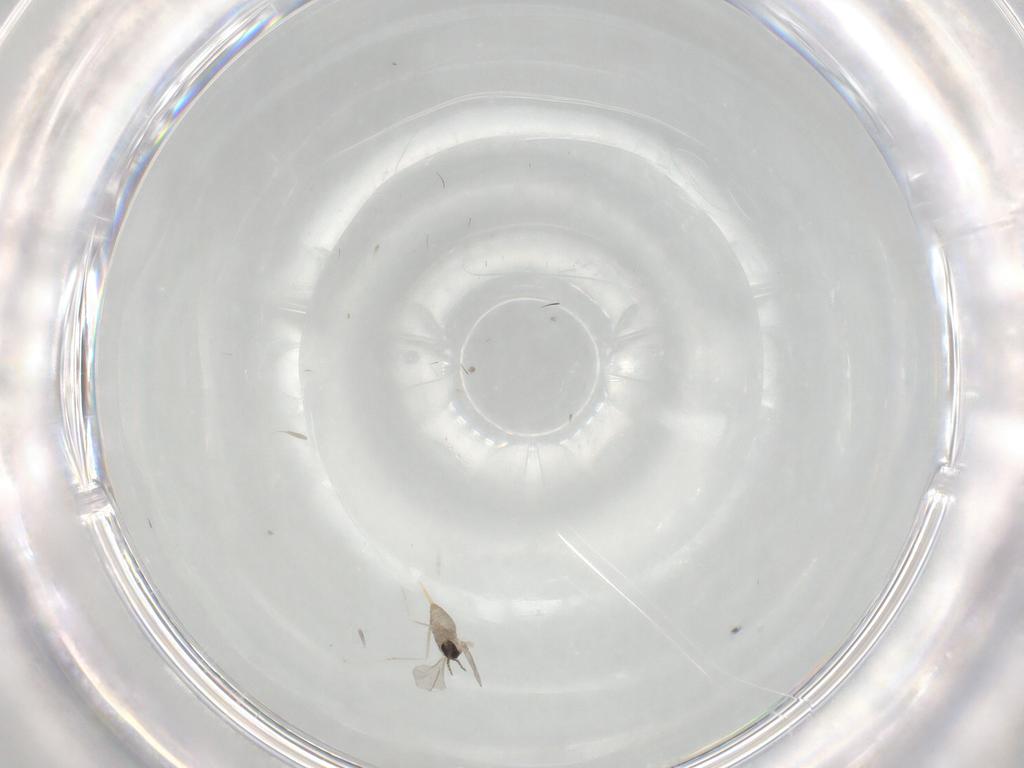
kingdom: Animalia
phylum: Arthropoda
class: Insecta
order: Diptera
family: Cecidomyiidae
